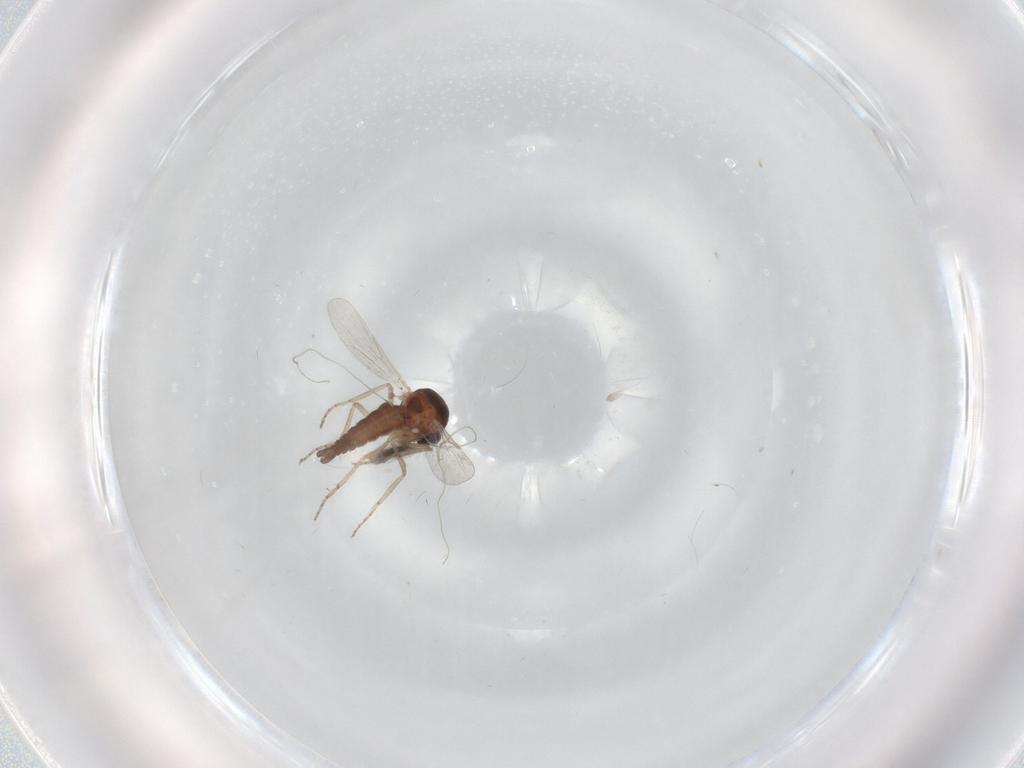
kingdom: Animalia
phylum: Arthropoda
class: Insecta
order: Diptera
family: Ceratopogonidae
